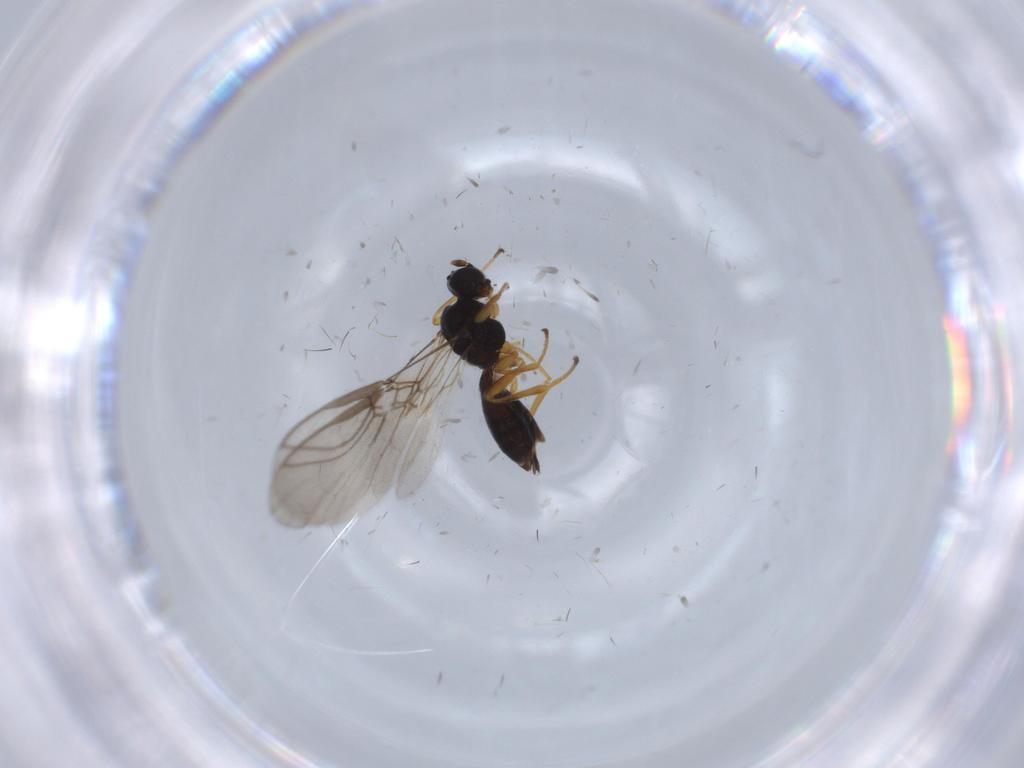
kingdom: Animalia
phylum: Arthropoda
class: Insecta
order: Hymenoptera
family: Braconidae
